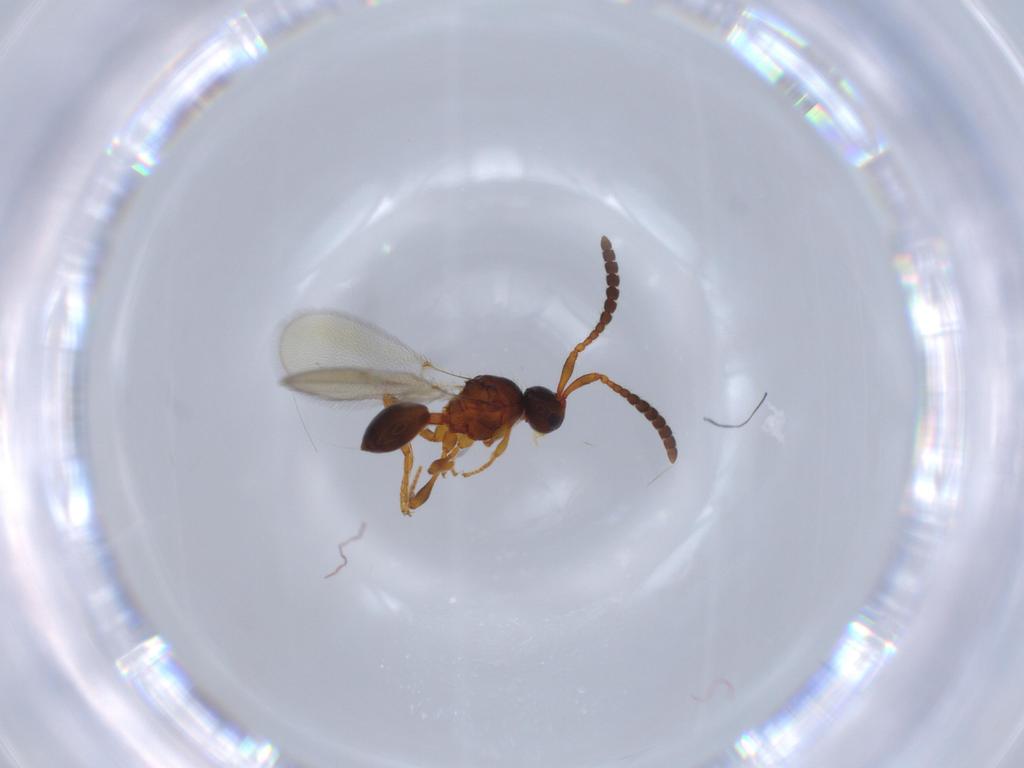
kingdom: Animalia
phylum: Arthropoda
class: Insecta
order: Hymenoptera
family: Diapriidae
